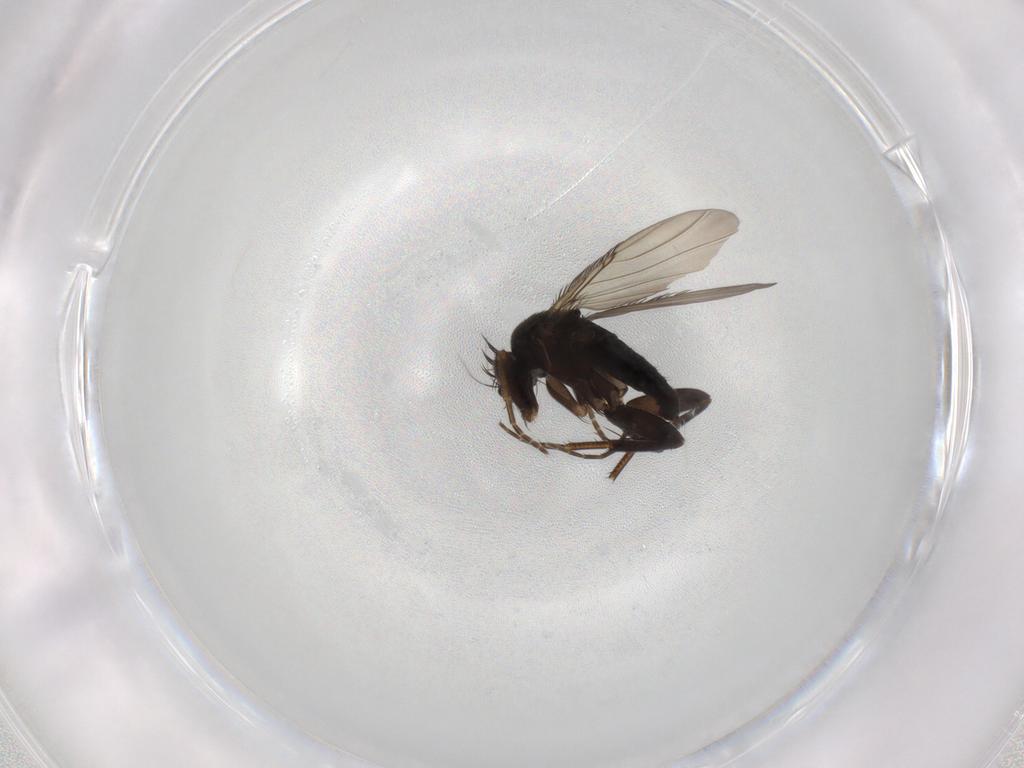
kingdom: Animalia
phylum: Arthropoda
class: Insecta
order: Diptera
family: Phoridae
